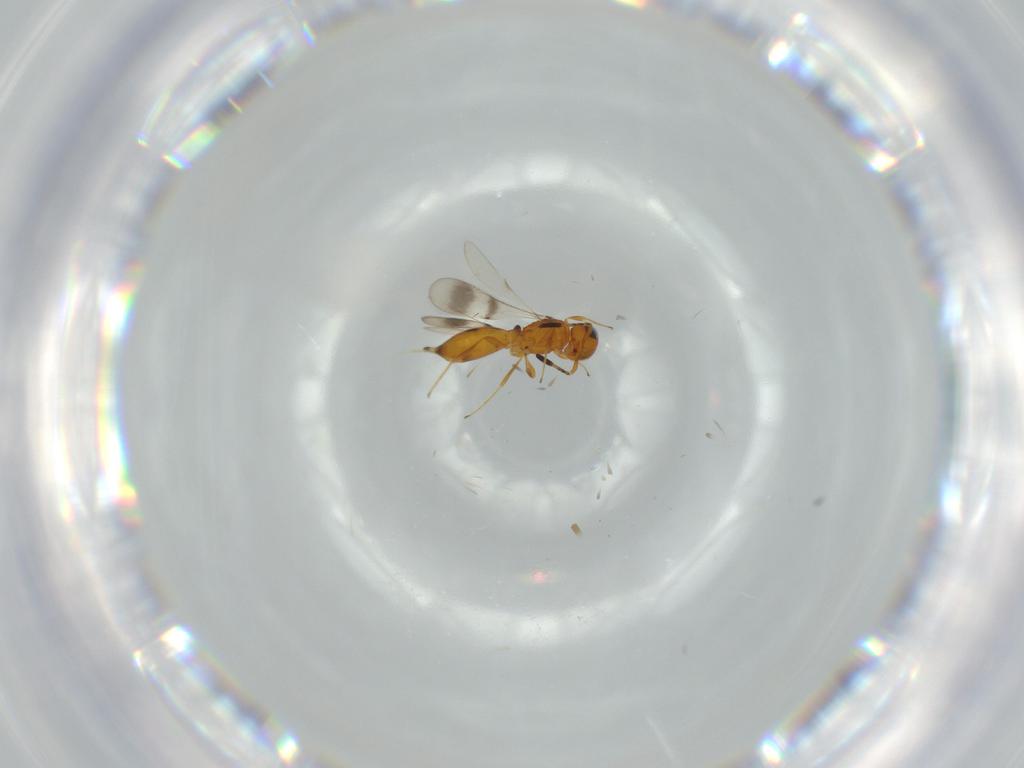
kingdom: Animalia
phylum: Arthropoda
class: Insecta
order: Hymenoptera
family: Scelionidae
